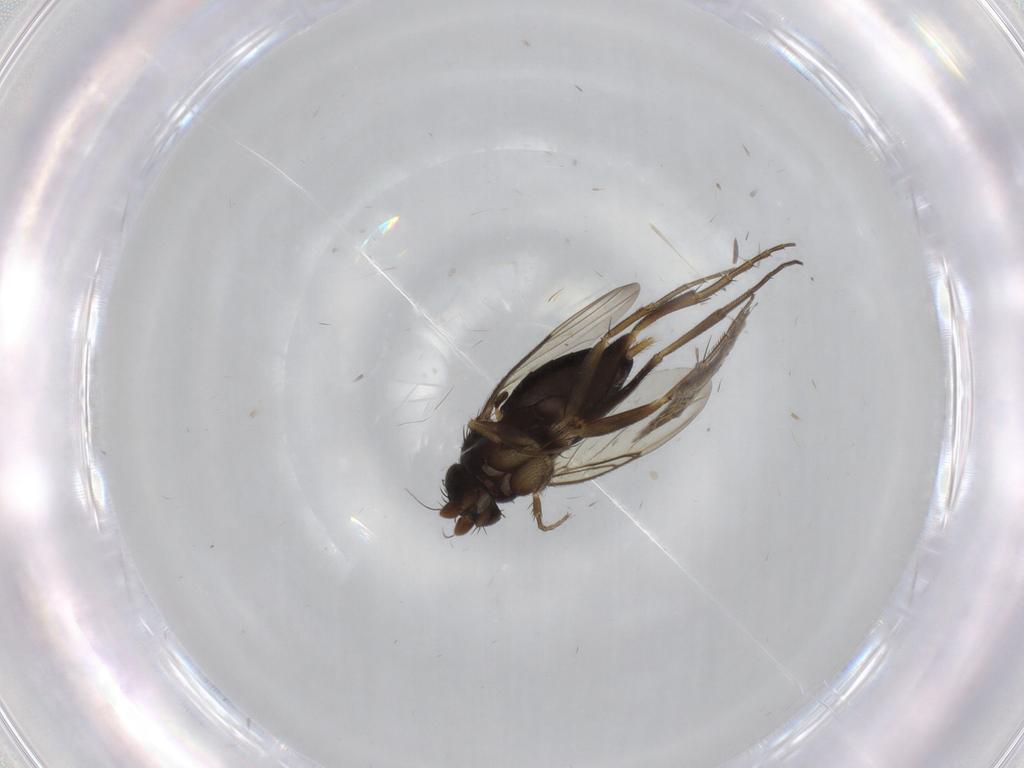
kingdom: Animalia
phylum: Arthropoda
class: Insecta
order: Diptera
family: Phoridae
